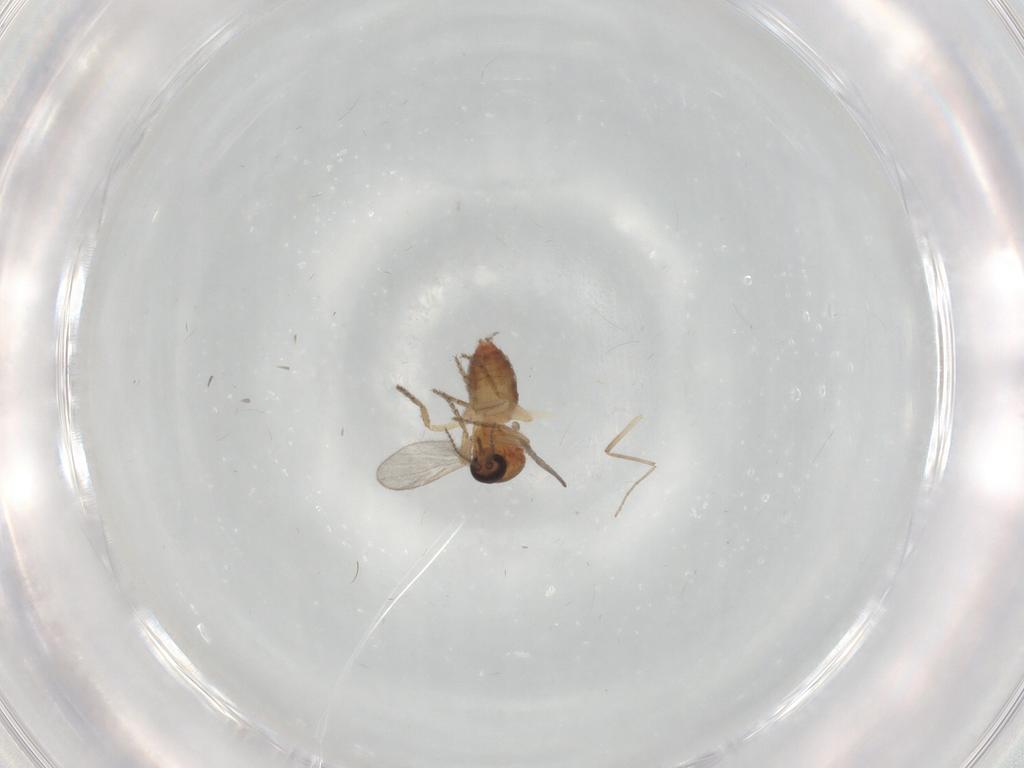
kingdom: Animalia
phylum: Arthropoda
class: Insecta
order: Diptera
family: Ceratopogonidae
